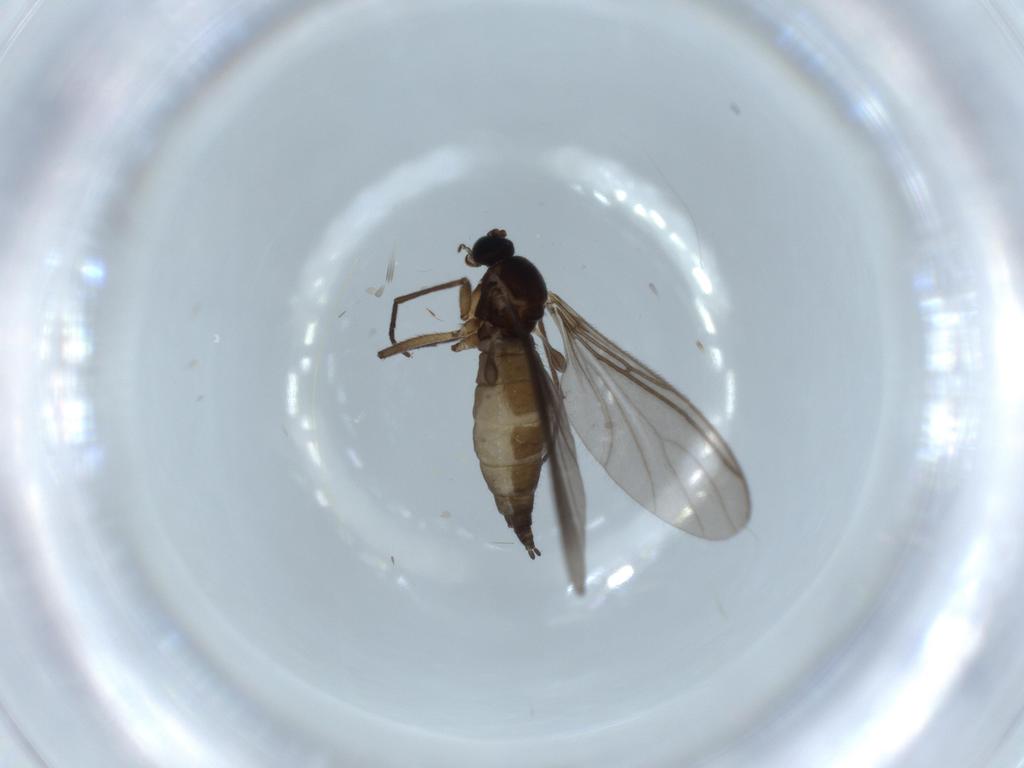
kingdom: Animalia
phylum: Arthropoda
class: Insecta
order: Diptera
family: Sciaridae
